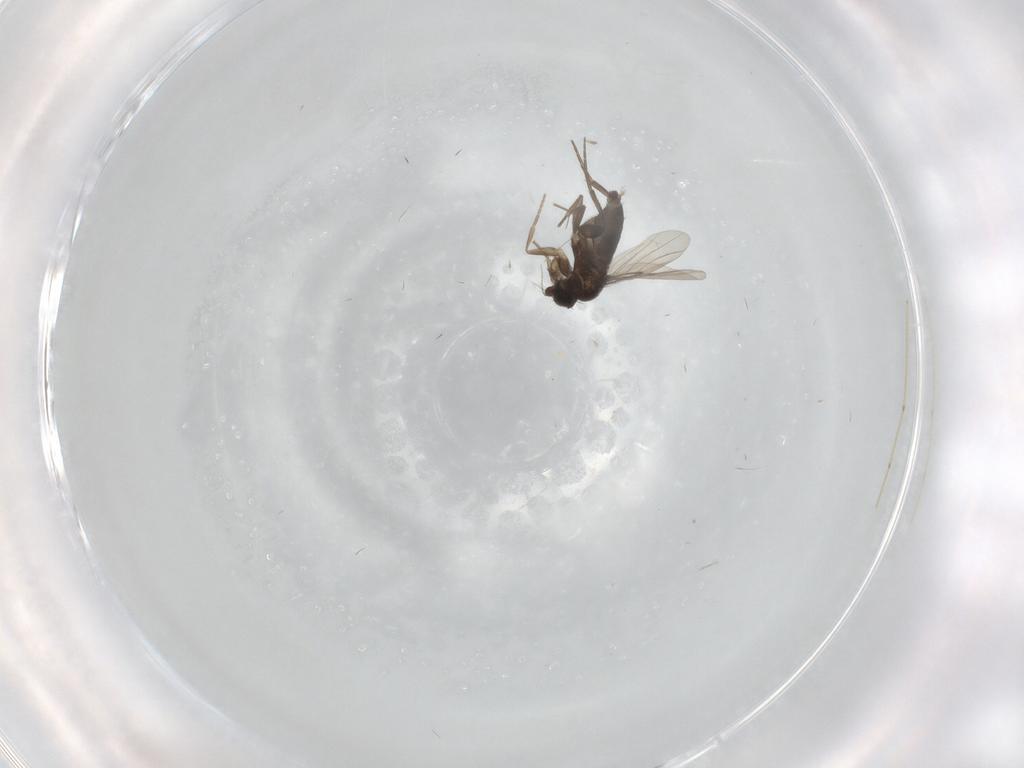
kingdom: Animalia
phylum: Arthropoda
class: Insecta
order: Diptera
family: Phoridae
